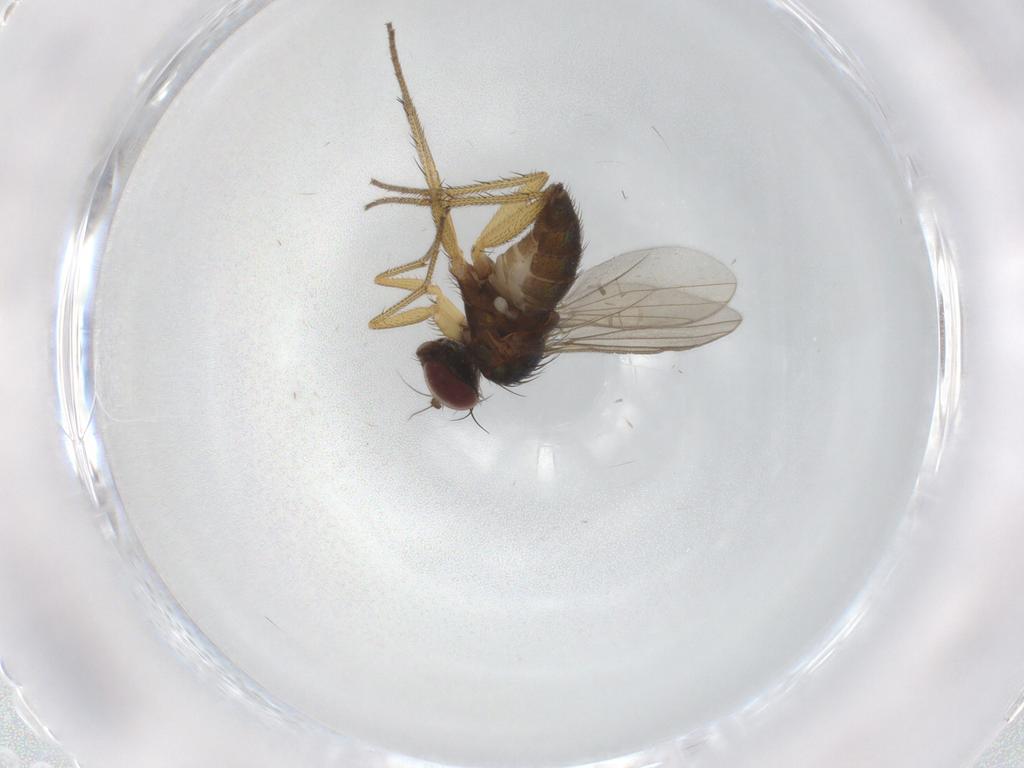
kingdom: Animalia
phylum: Arthropoda
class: Insecta
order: Diptera
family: Dolichopodidae
